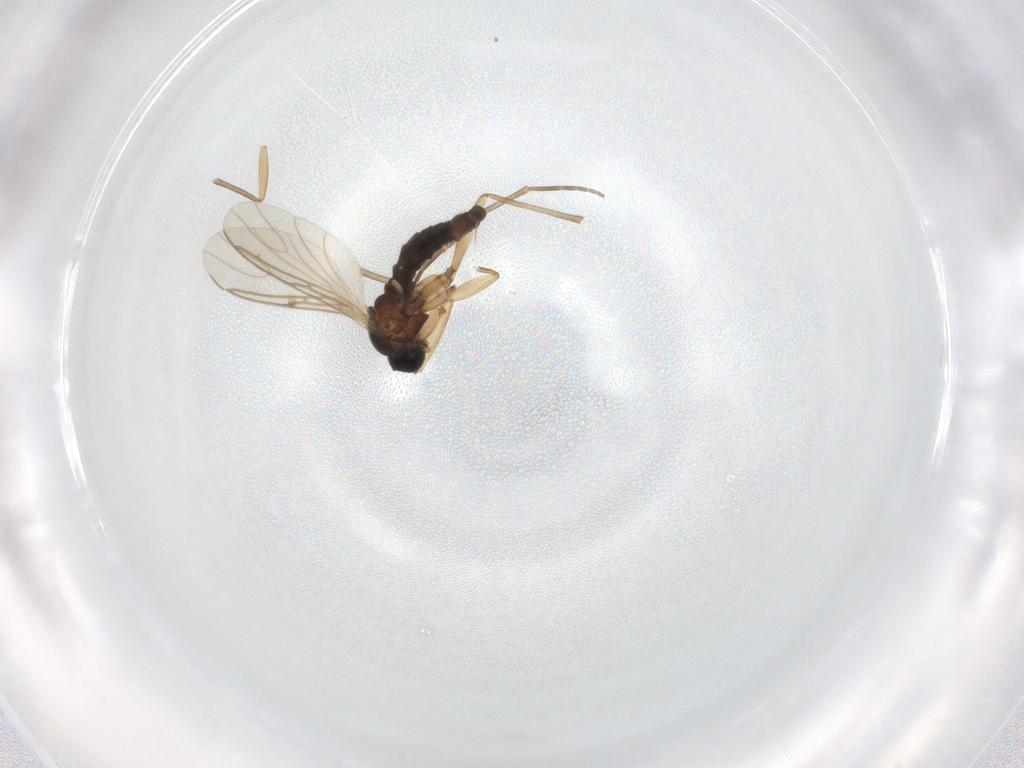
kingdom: Animalia
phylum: Arthropoda
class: Insecta
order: Diptera
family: Sciaridae
